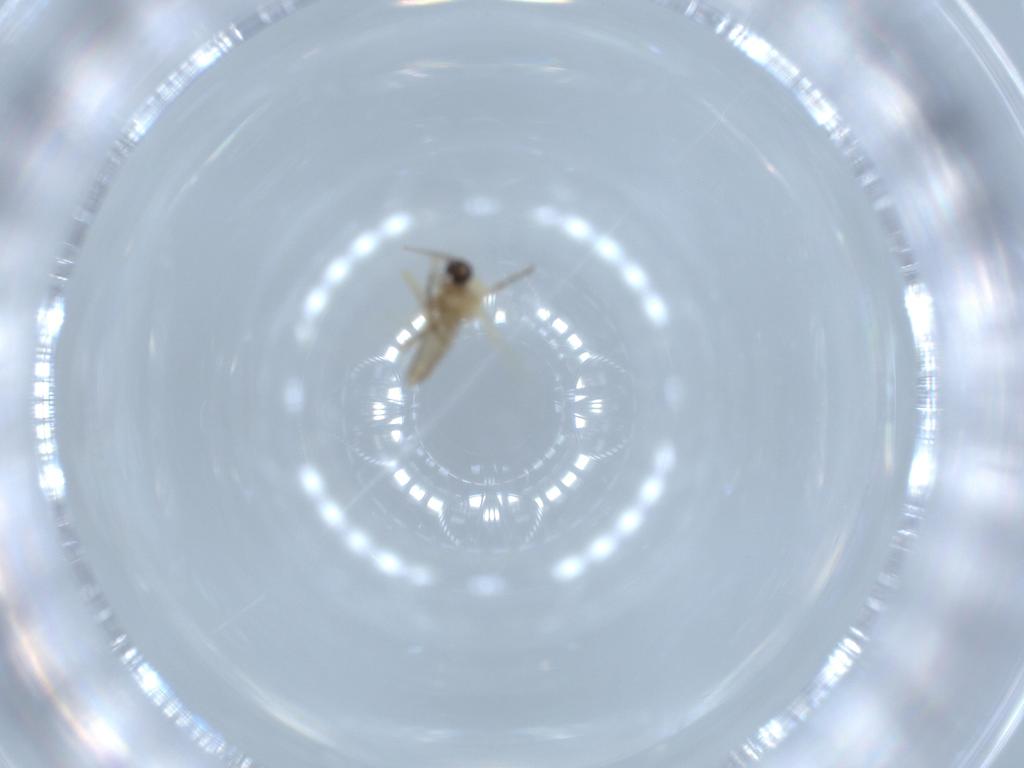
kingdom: Animalia
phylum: Arthropoda
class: Insecta
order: Diptera
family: Ceratopogonidae
